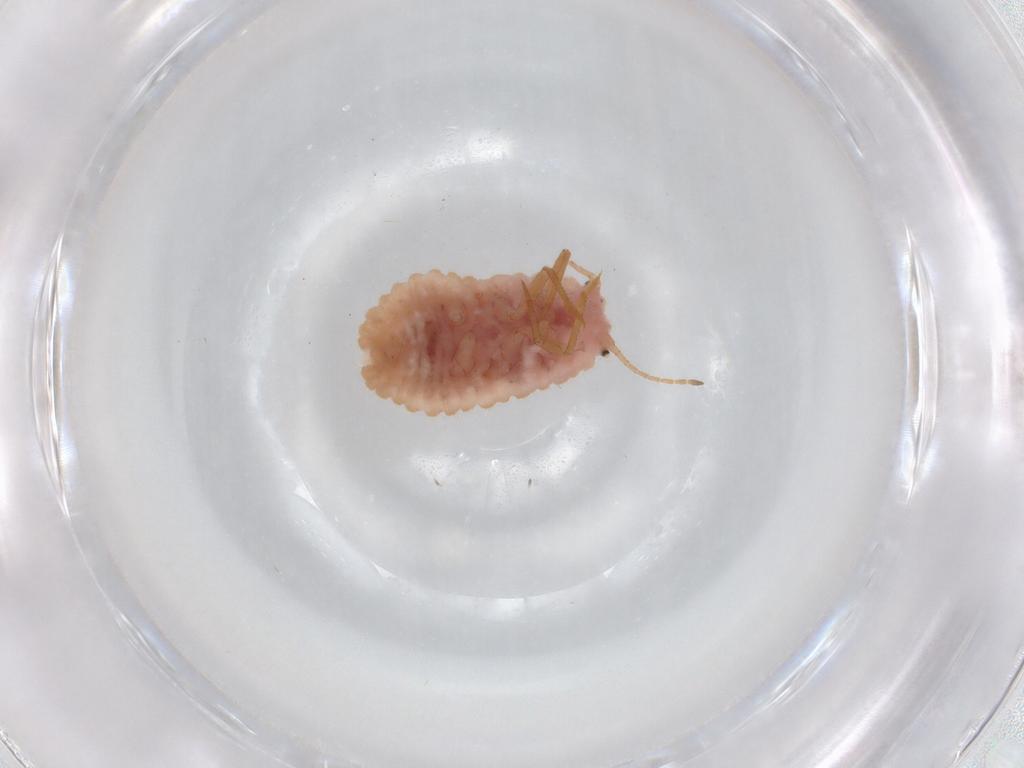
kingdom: Animalia
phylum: Arthropoda
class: Insecta
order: Hemiptera
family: Coccoidea_incertae_sedis
